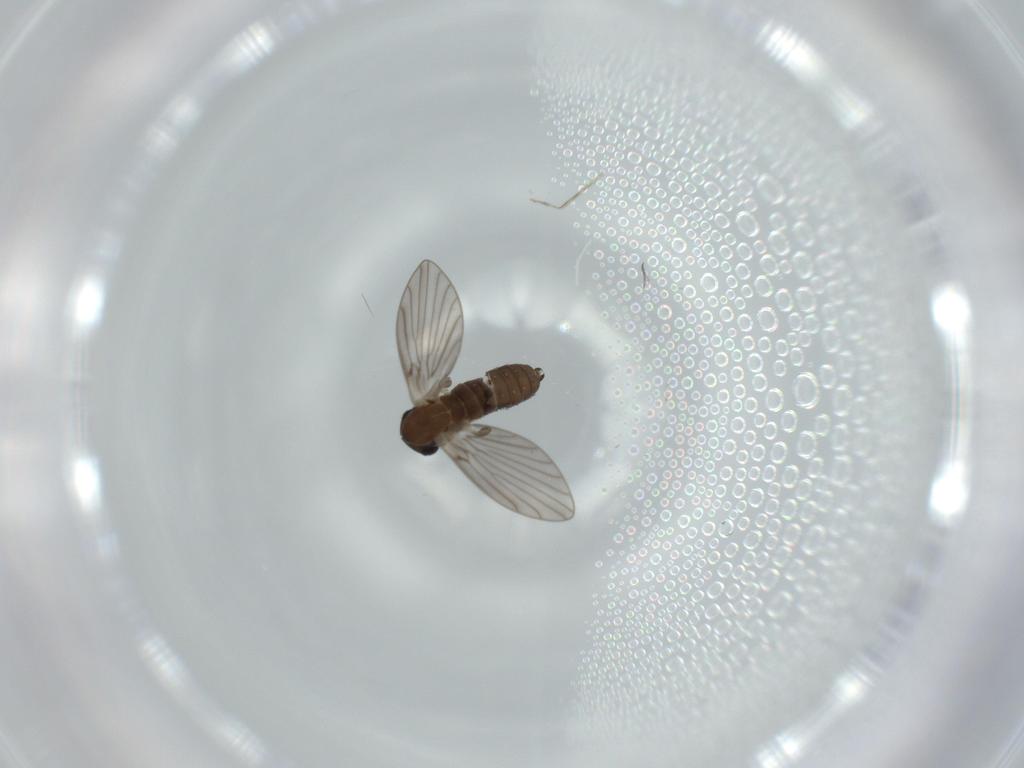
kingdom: Animalia
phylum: Arthropoda
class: Insecta
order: Diptera
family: Psychodidae
